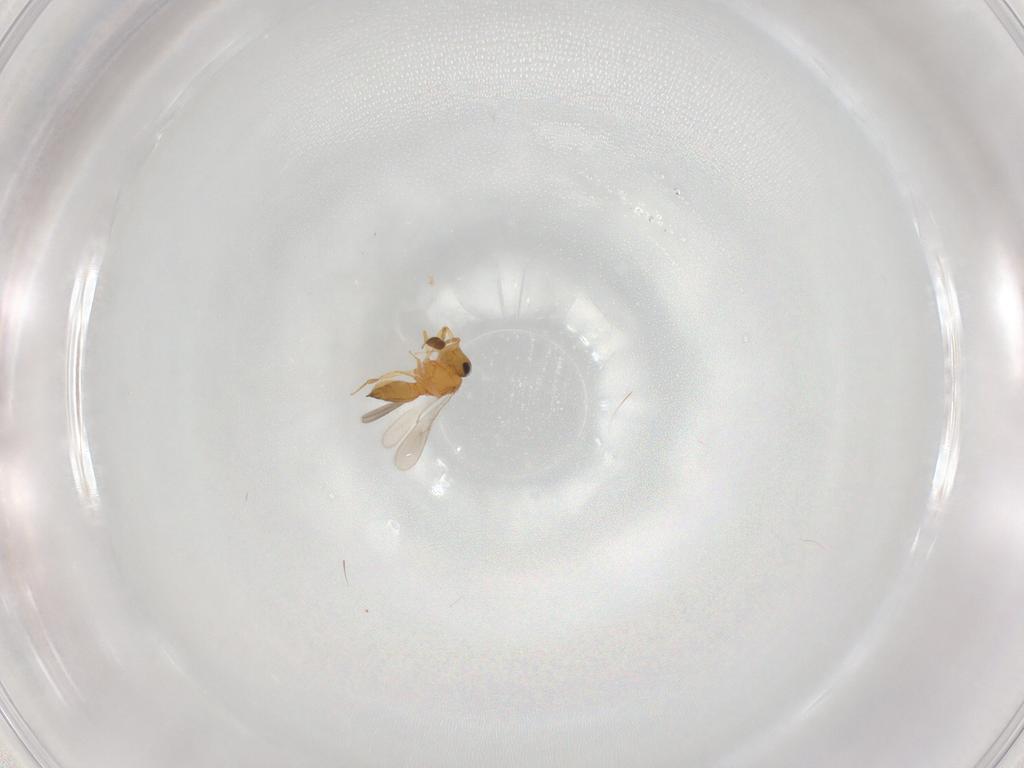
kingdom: Animalia
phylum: Arthropoda
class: Insecta
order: Hymenoptera
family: Scelionidae
